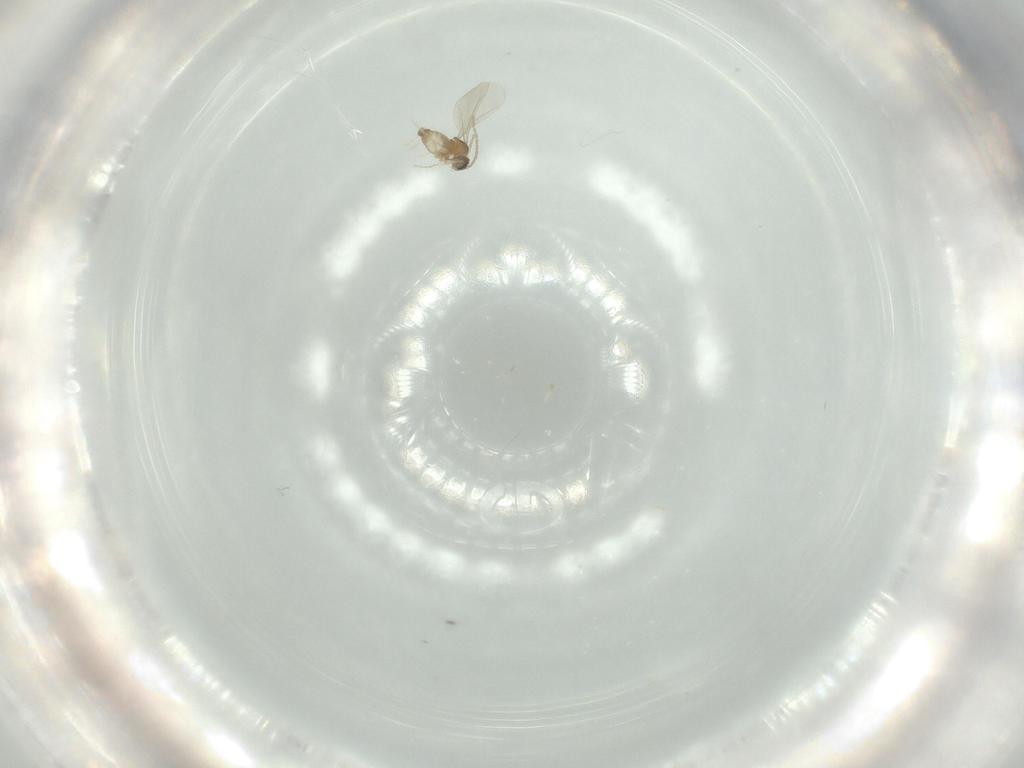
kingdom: Animalia
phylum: Arthropoda
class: Insecta
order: Diptera
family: Cecidomyiidae
